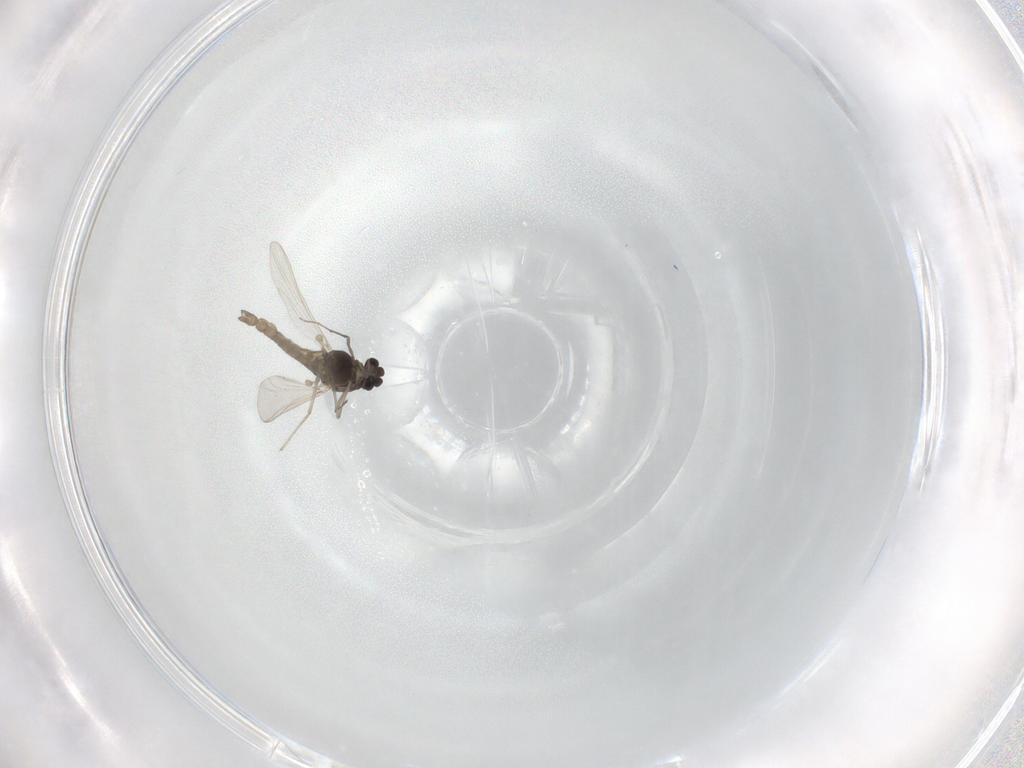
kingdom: Animalia
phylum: Arthropoda
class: Insecta
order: Diptera
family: Chironomidae
